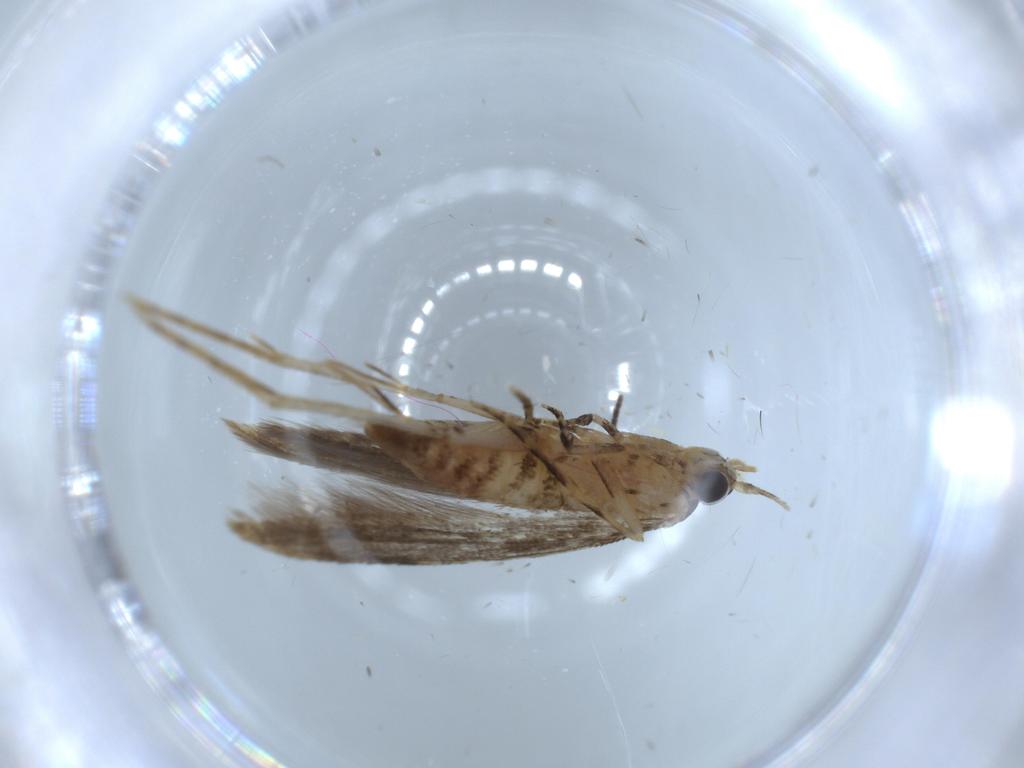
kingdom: Animalia
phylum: Arthropoda
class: Insecta
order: Lepidoptera
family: Tineidae
